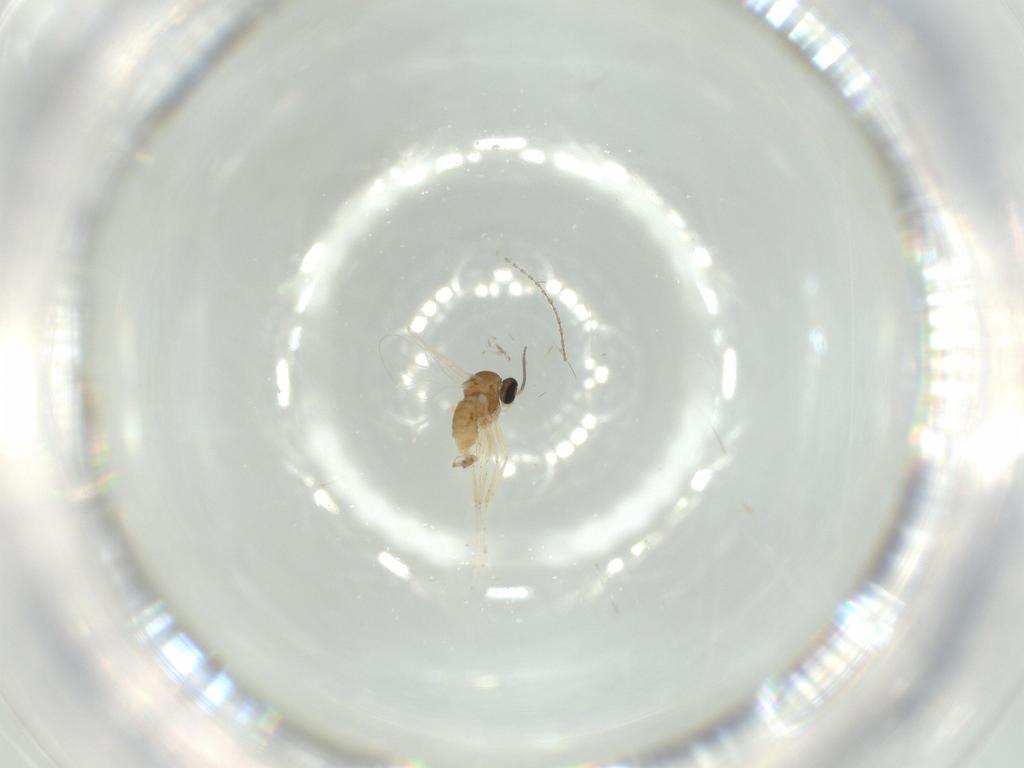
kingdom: Animalia
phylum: Arthropoda
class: Insecta
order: Diptera
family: Cecidomyiidae
